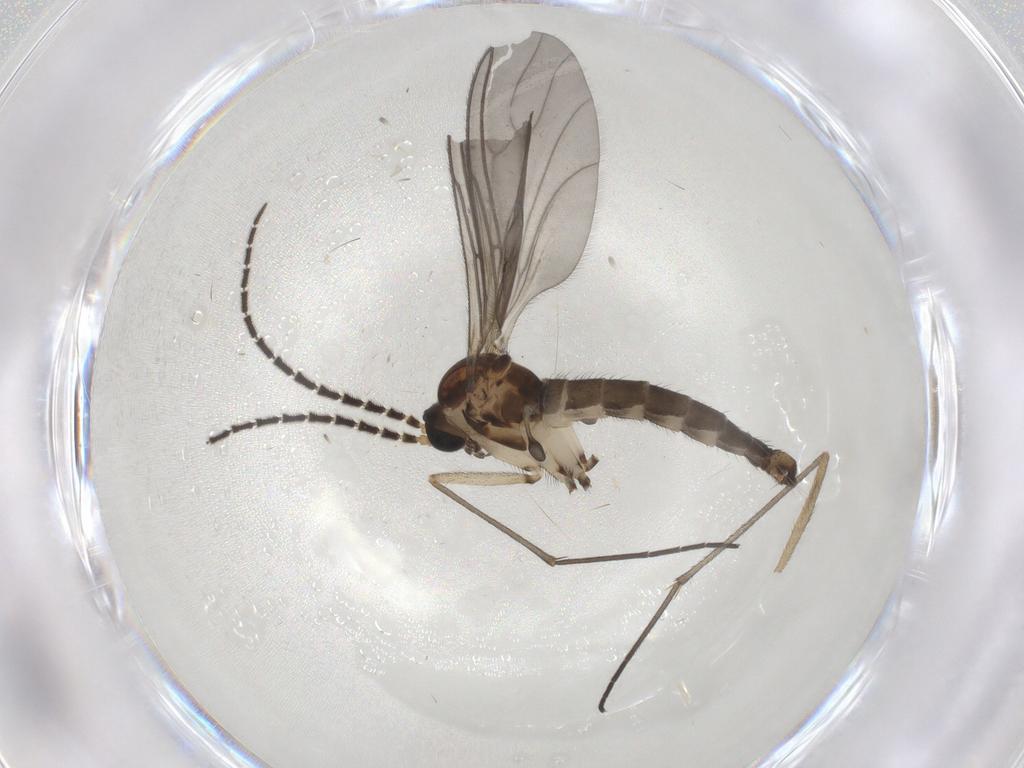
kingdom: Animalia
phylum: Arthropoda
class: Insecta
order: Diptera
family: Sciaridae
